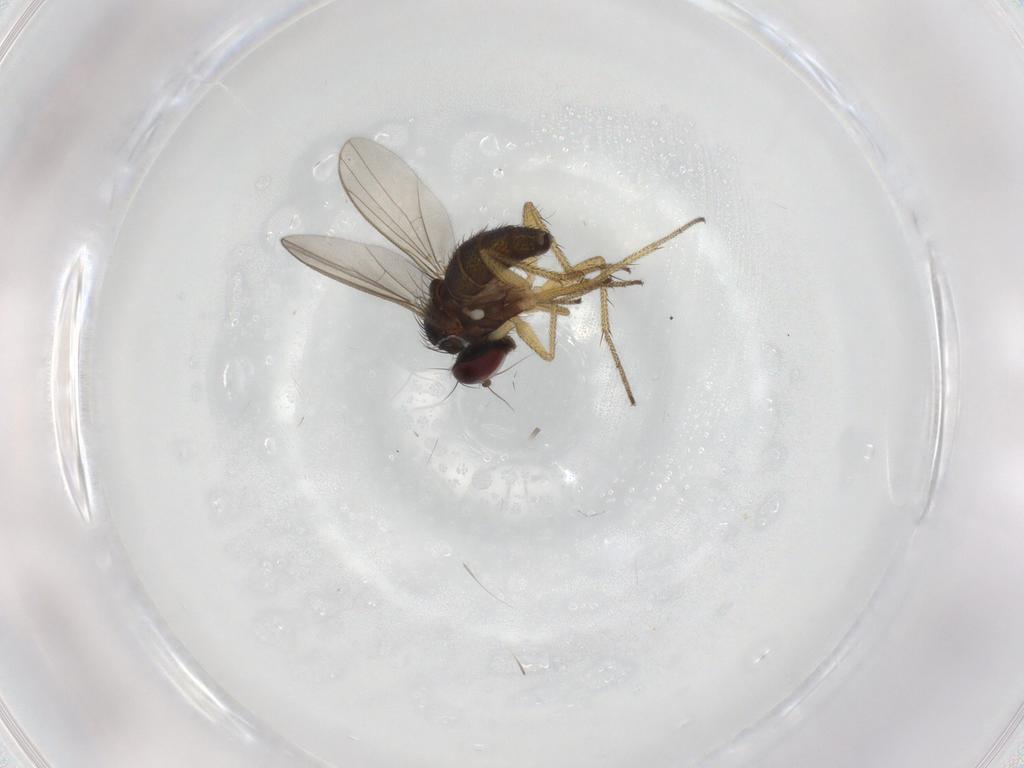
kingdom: Animalia
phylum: Arthropoda
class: Insecta
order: Diptera
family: Dolichopodidae
